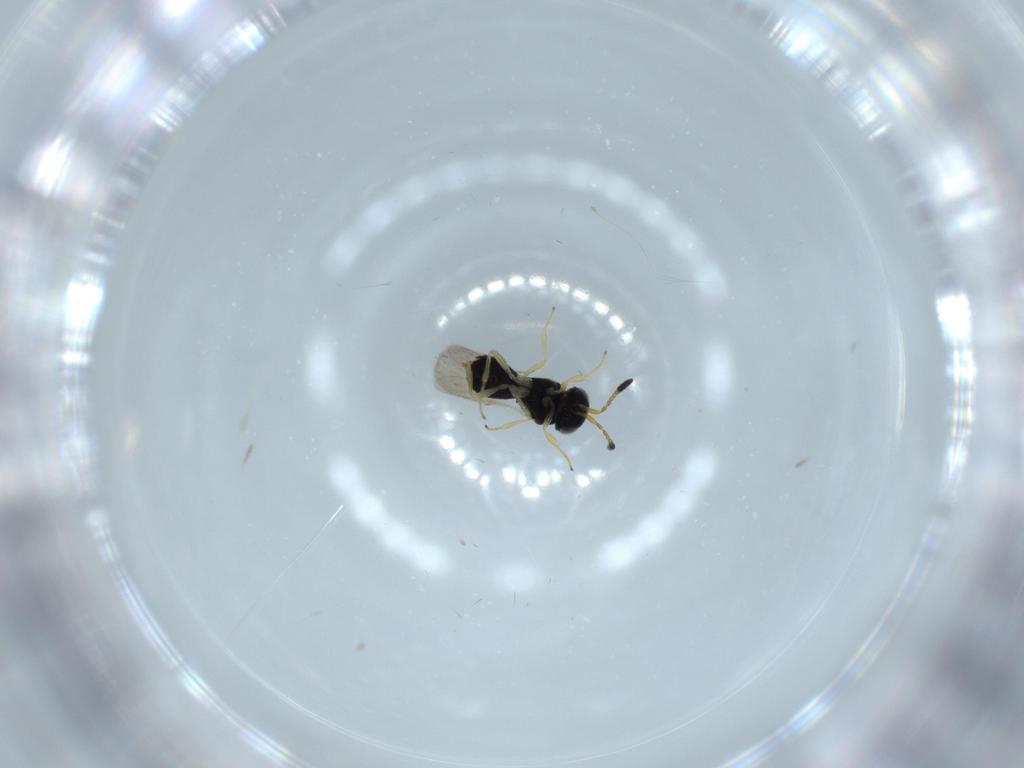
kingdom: Animalia
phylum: Arthropoda
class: Insecta
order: Hymenoptera
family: Scelionidae
